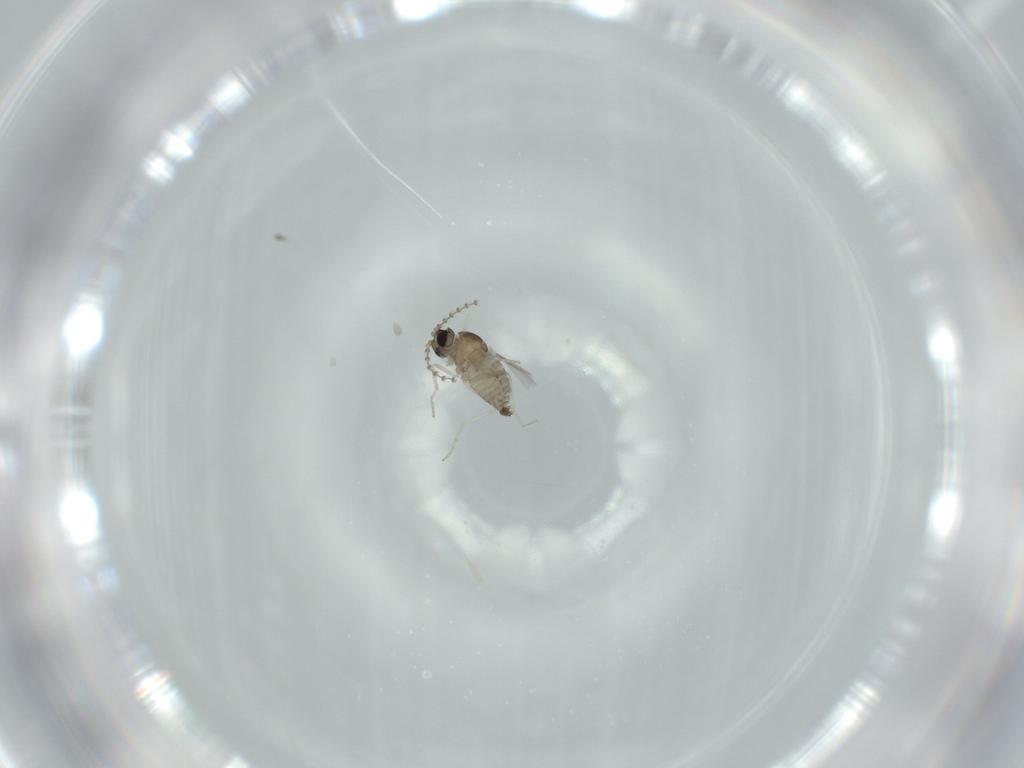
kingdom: Animalia
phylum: Arthropoda
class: Insecta
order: Diptera
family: Cecidomyiidae
